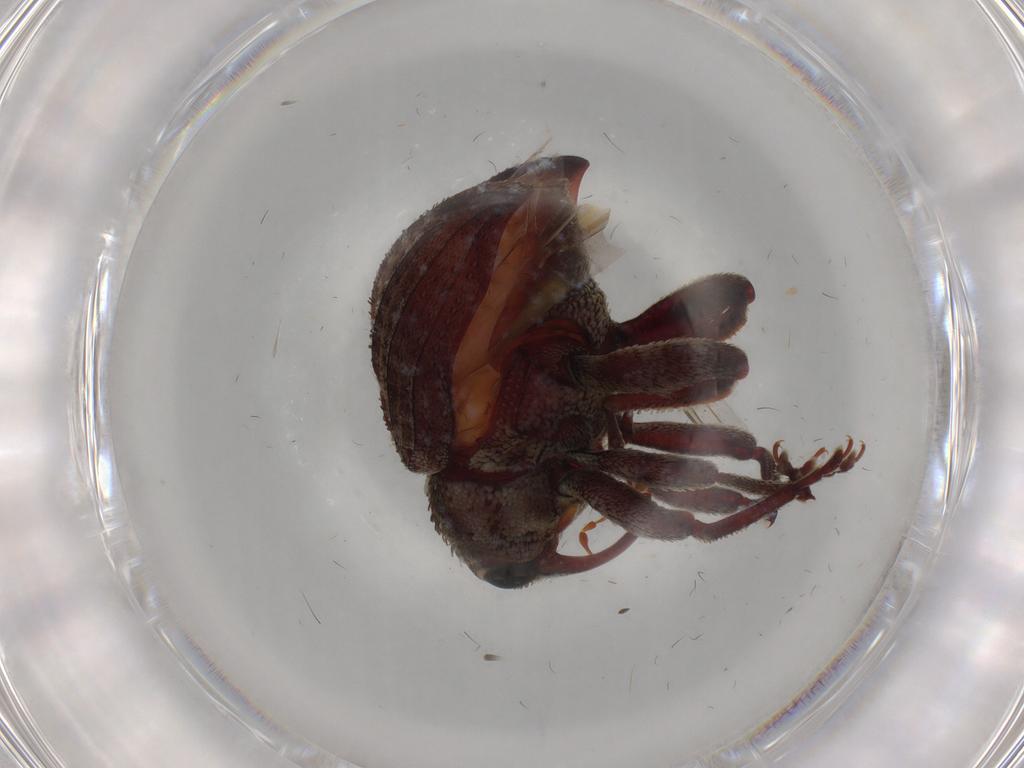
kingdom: Animalia
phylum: Arthropoda
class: Insecta
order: Coleoptera
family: Curculionidae
